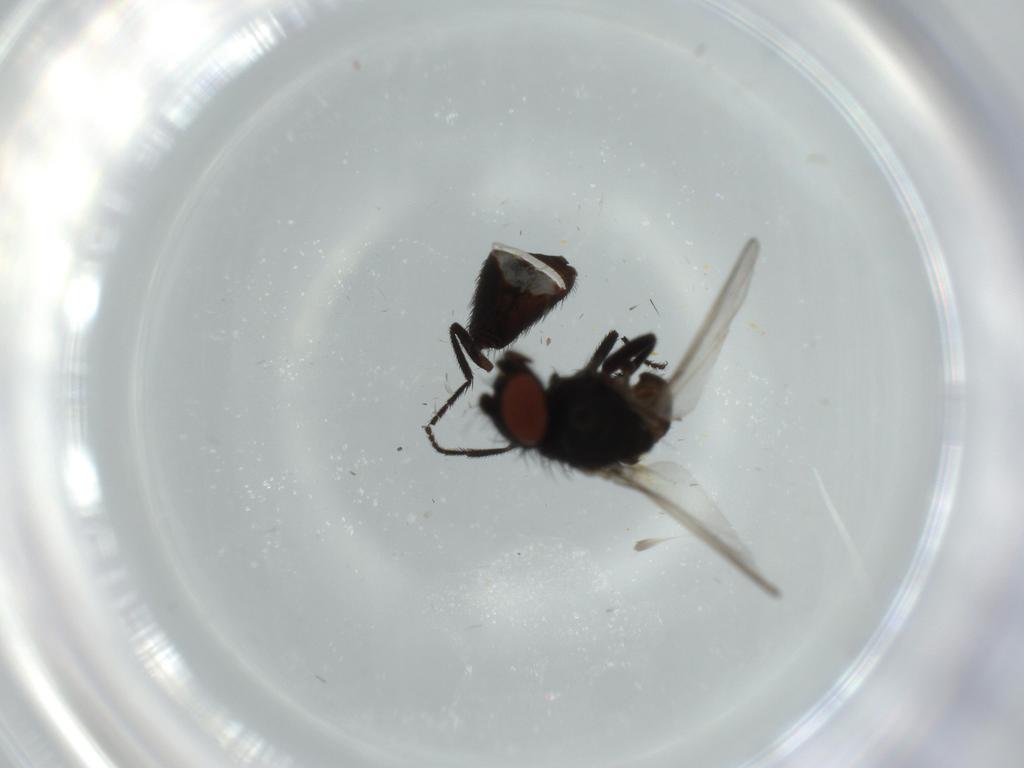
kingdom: Animalia
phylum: Arthropoda
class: Insecta
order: Diptera
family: Milichiidae
